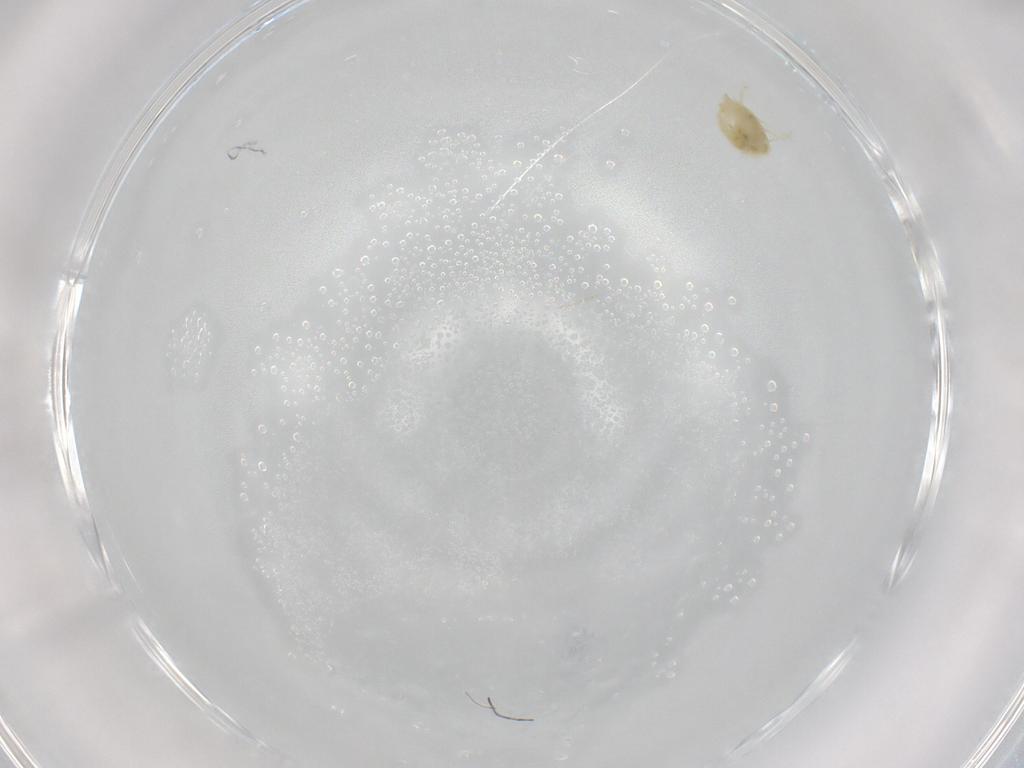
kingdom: Animalia
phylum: Arthropoda
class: Arachnida
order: Trombidiformes
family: Tetranychidae
